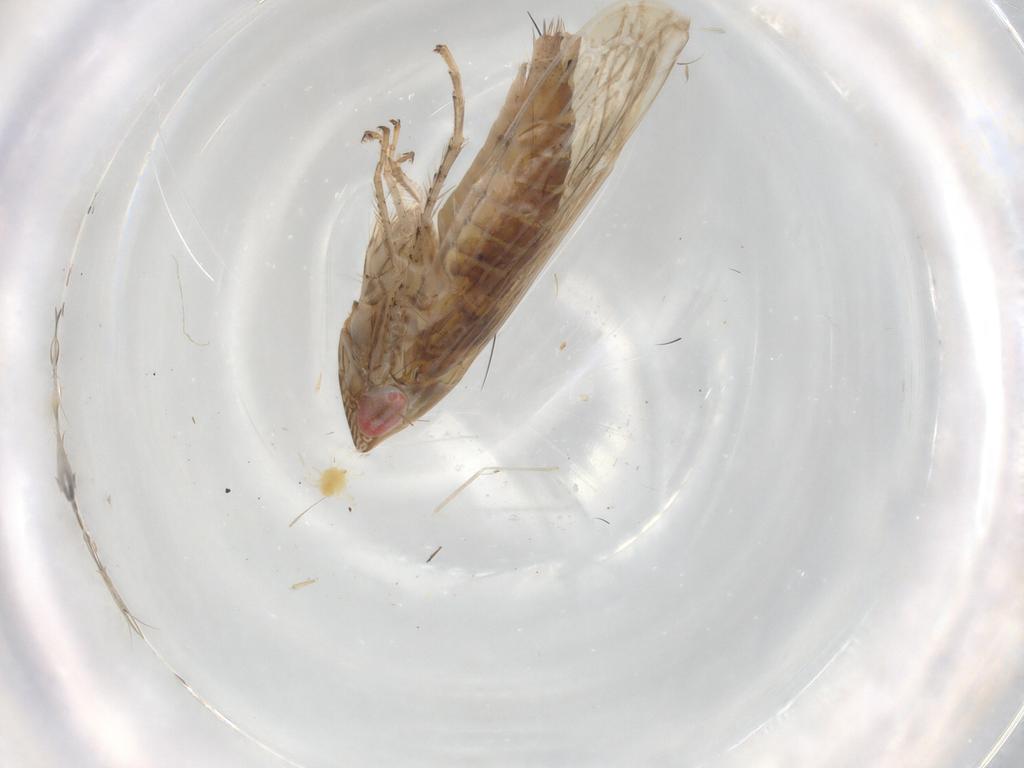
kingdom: Animalia
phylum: Arthropoda
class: Insecta
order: Hemiptera
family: Cicadellidae
